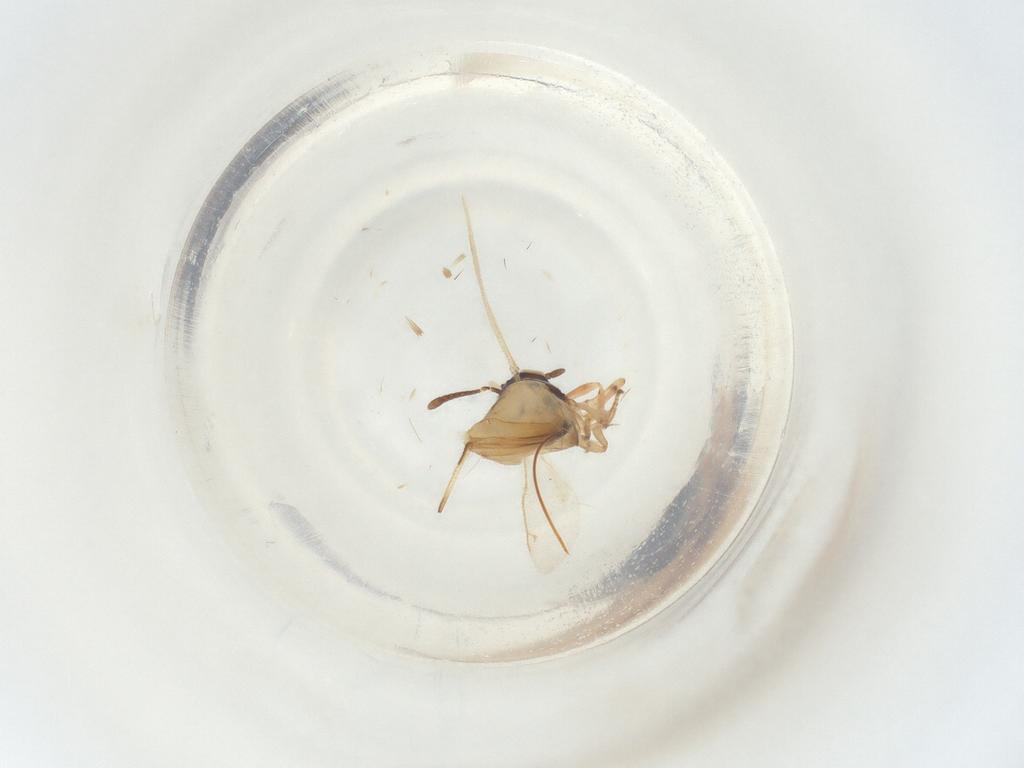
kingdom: Animalia
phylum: Arthropoda
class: Insecta
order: Hymenoptera
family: Eupelmidae
